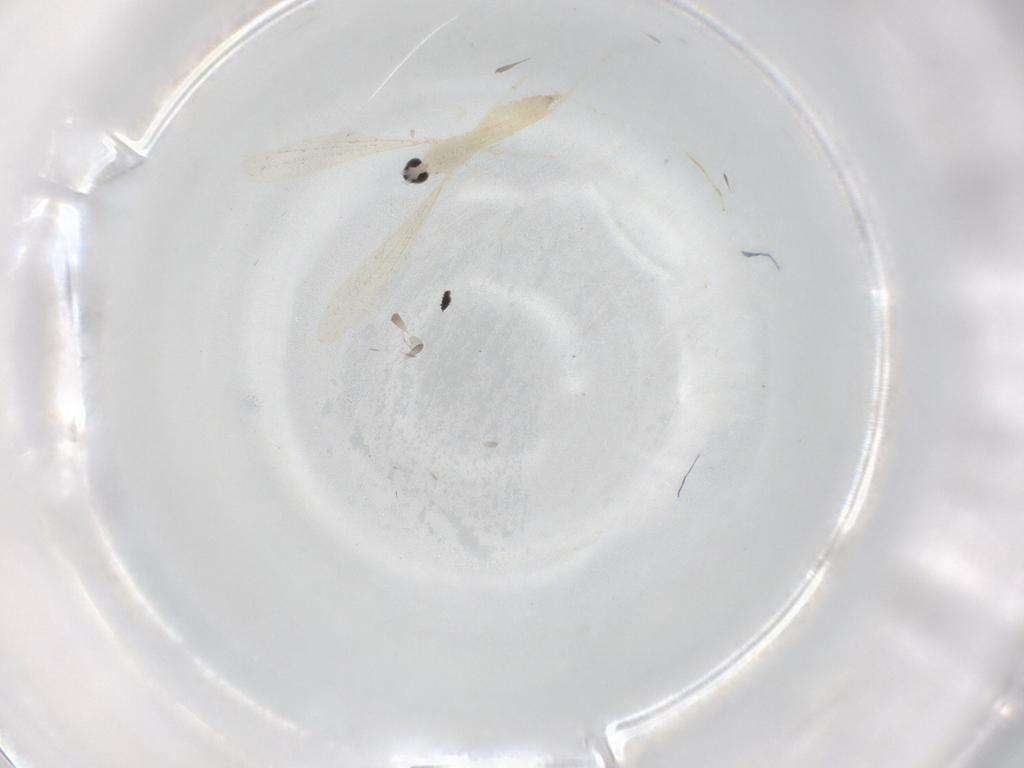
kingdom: Animalia
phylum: Arthropoda
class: Insecta
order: Diptera
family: Cecidomyiidae
